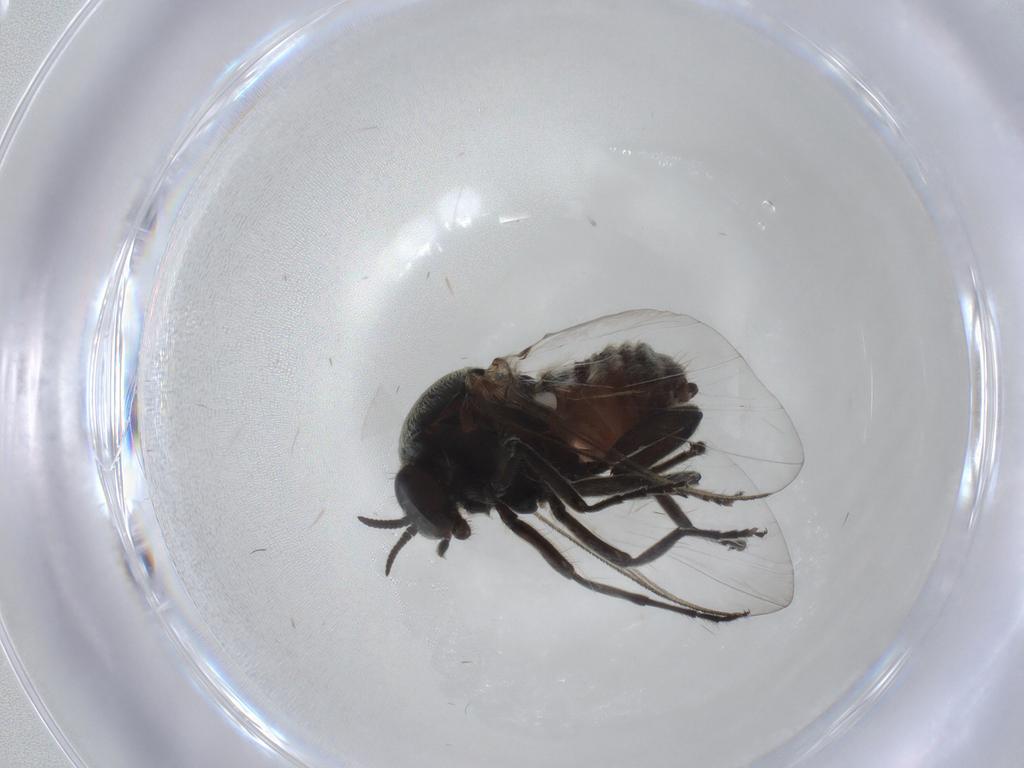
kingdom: Animalia
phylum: Arthropoda
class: Insecta
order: Diptera
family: Empididae
